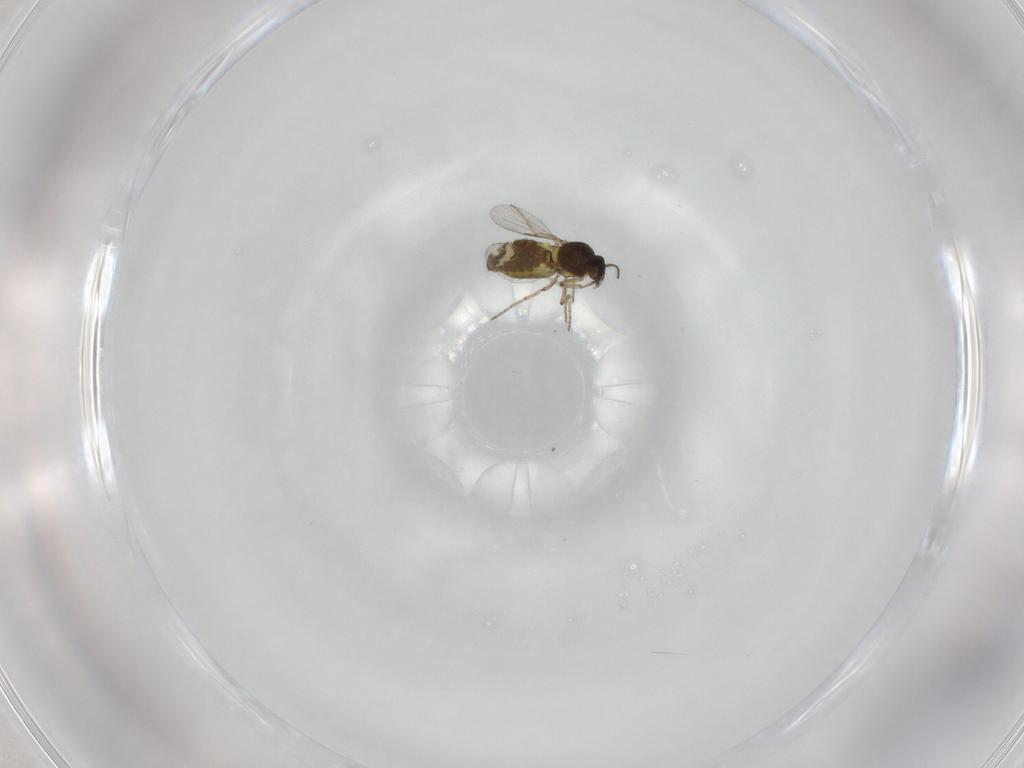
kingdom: Animalia
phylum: Arthropoda
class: Insecta
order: Diptera
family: Ceratopogonidae
